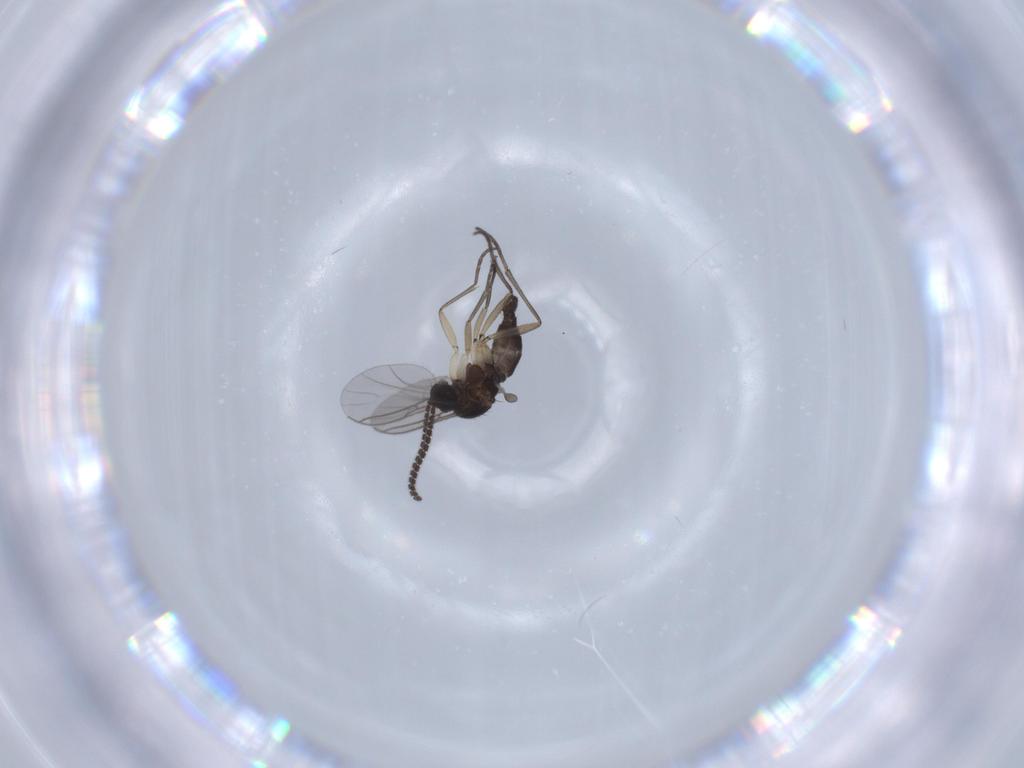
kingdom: Animalia
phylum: Arthropoda
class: Insecta
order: Diptera
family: Sciaridae
